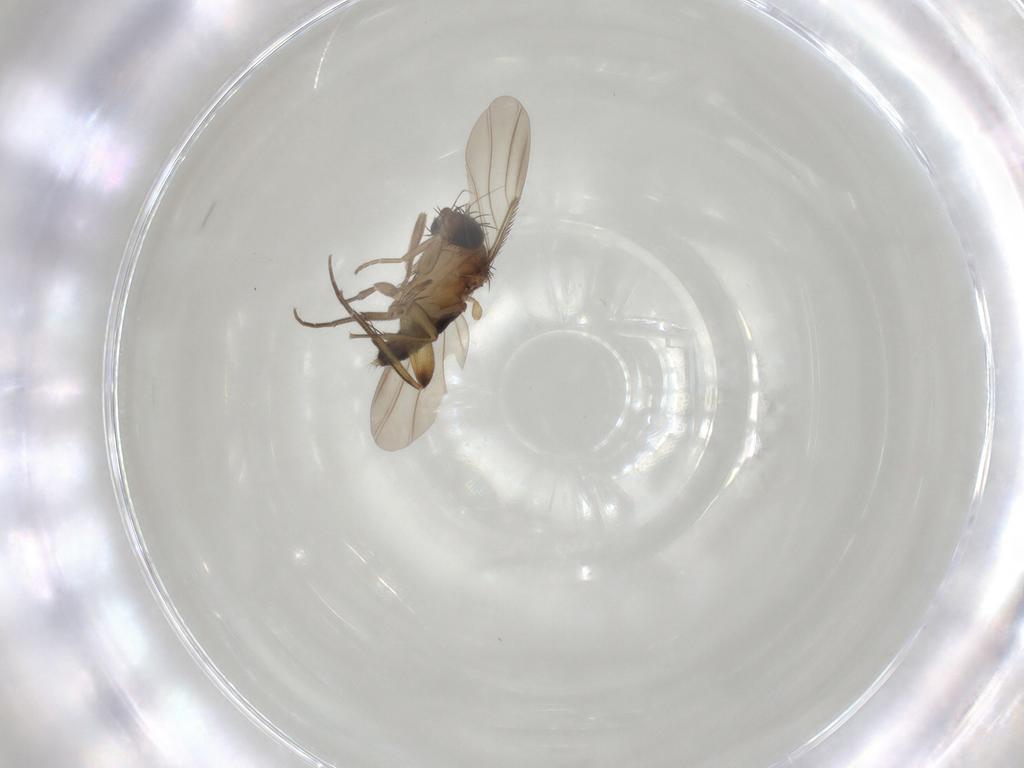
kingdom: Animalia
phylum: Arthropoda
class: Insecta
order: Diptera
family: Phoridae
